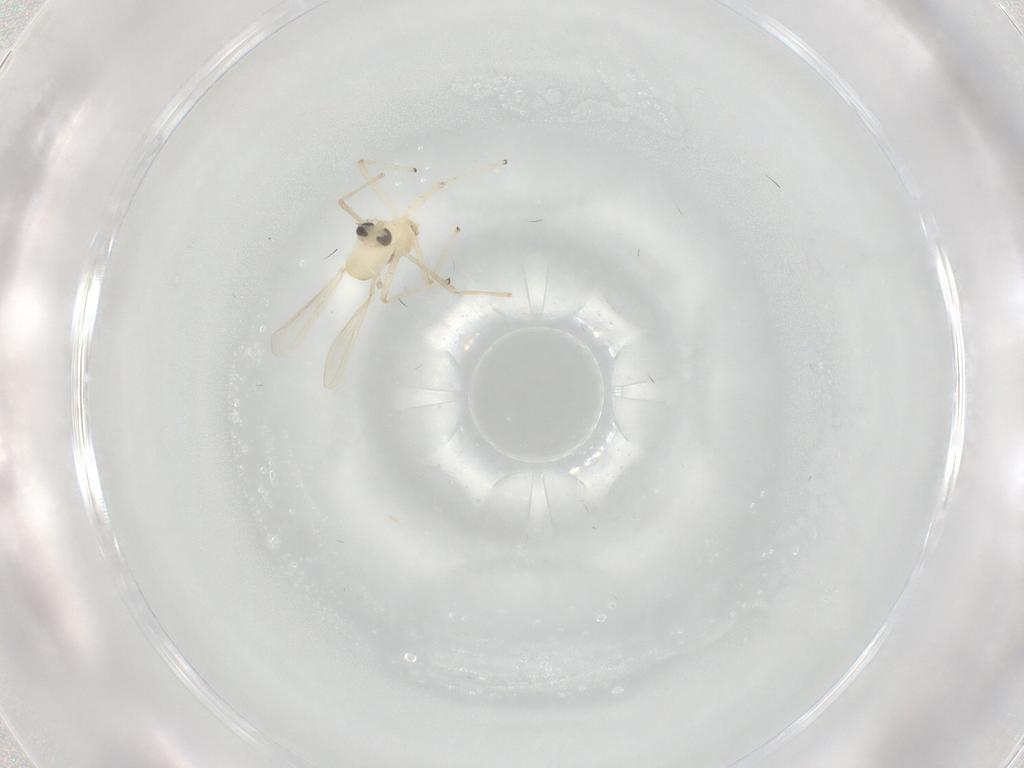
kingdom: Animalia
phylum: Arthropoda
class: Insecta
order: Diptera
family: Chironomidae
